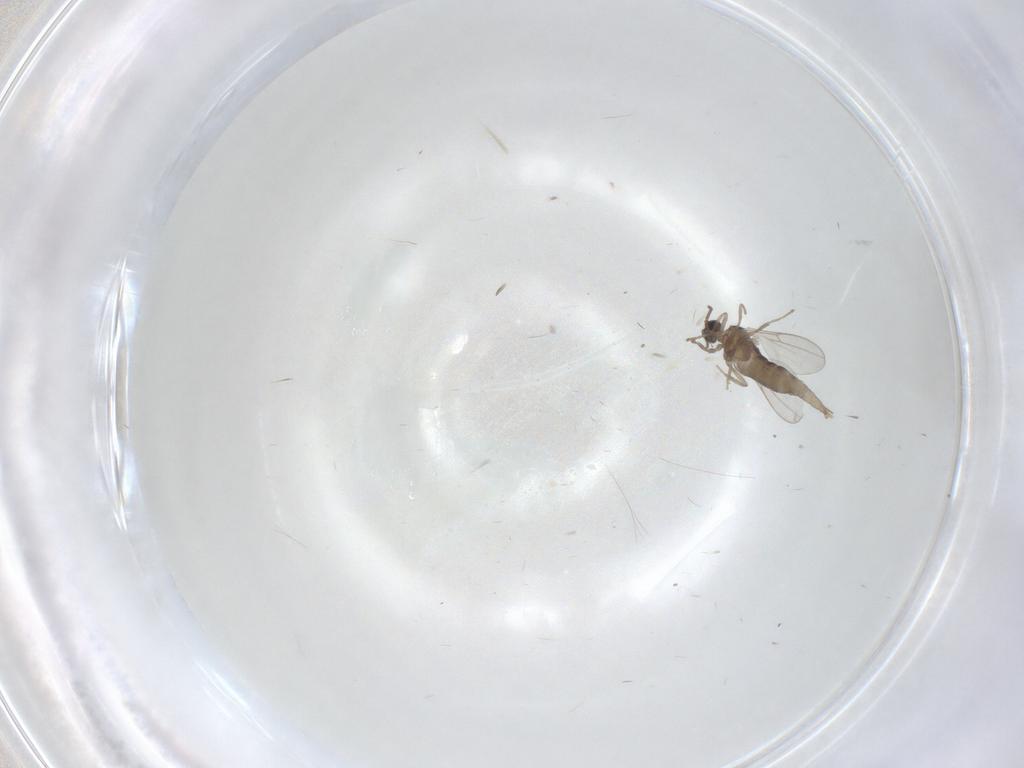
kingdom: Animalia
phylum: Arthropoda
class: Insecta
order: Diptera
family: Cecidomyiidae
